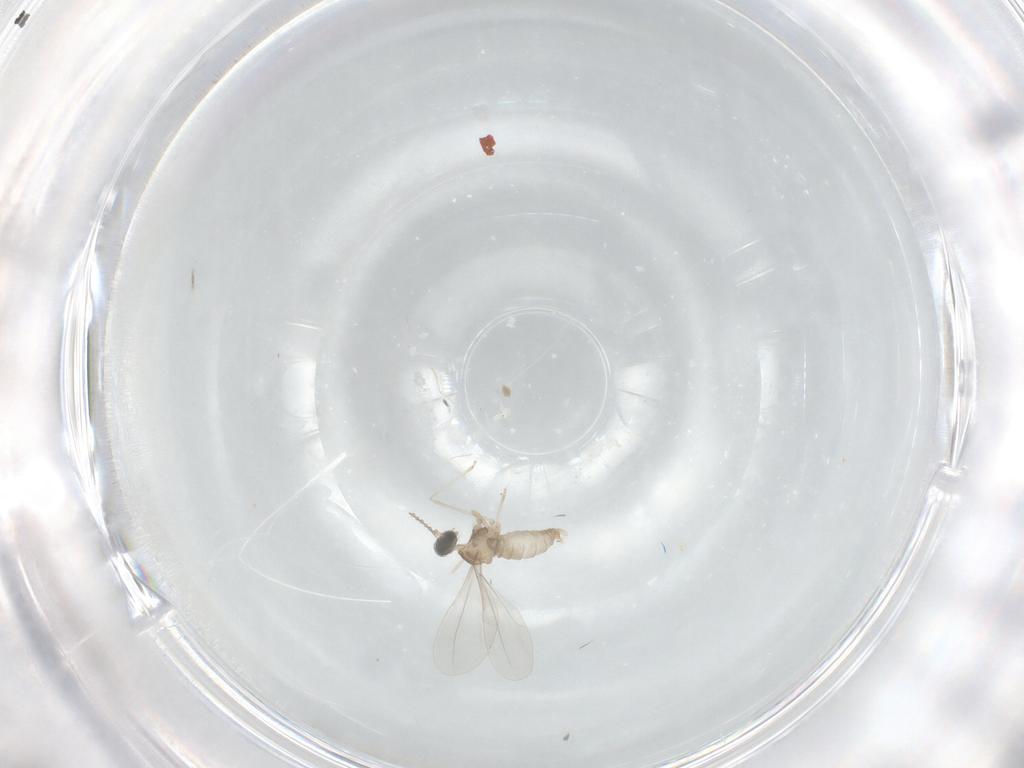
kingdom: Animalia
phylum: Arthropoda
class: Insecta
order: Diptera
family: Cecidomyiidae
